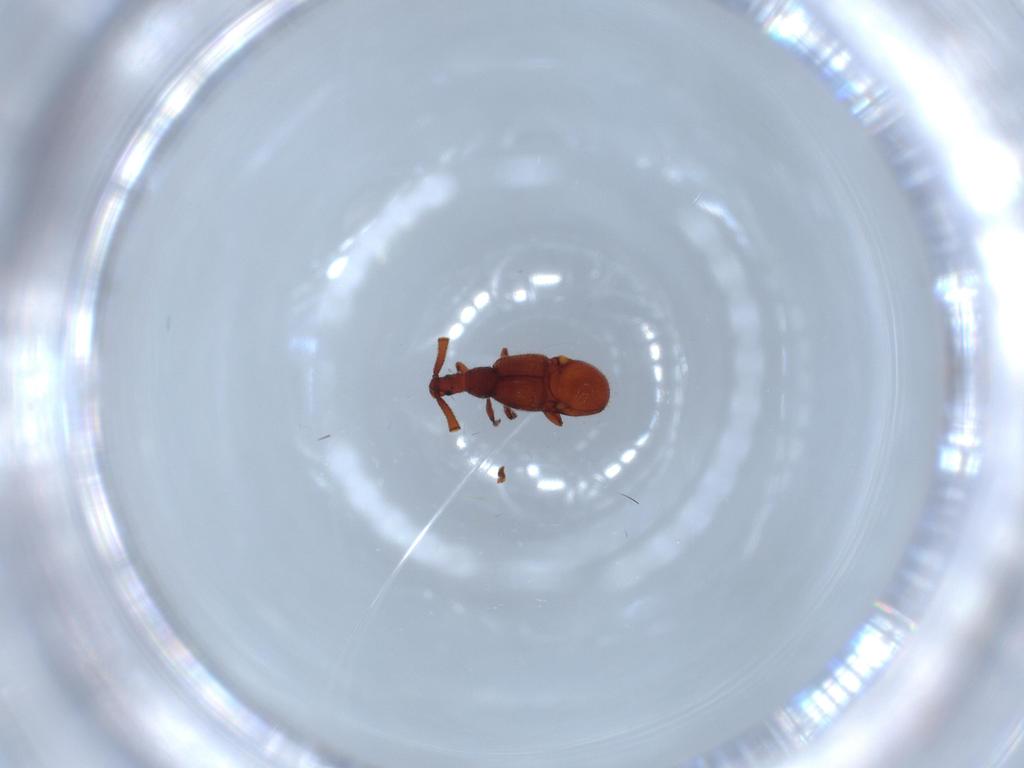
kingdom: Animalia
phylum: Arthropoda
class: Insecta
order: Coleoptera
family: Staphylinidae
